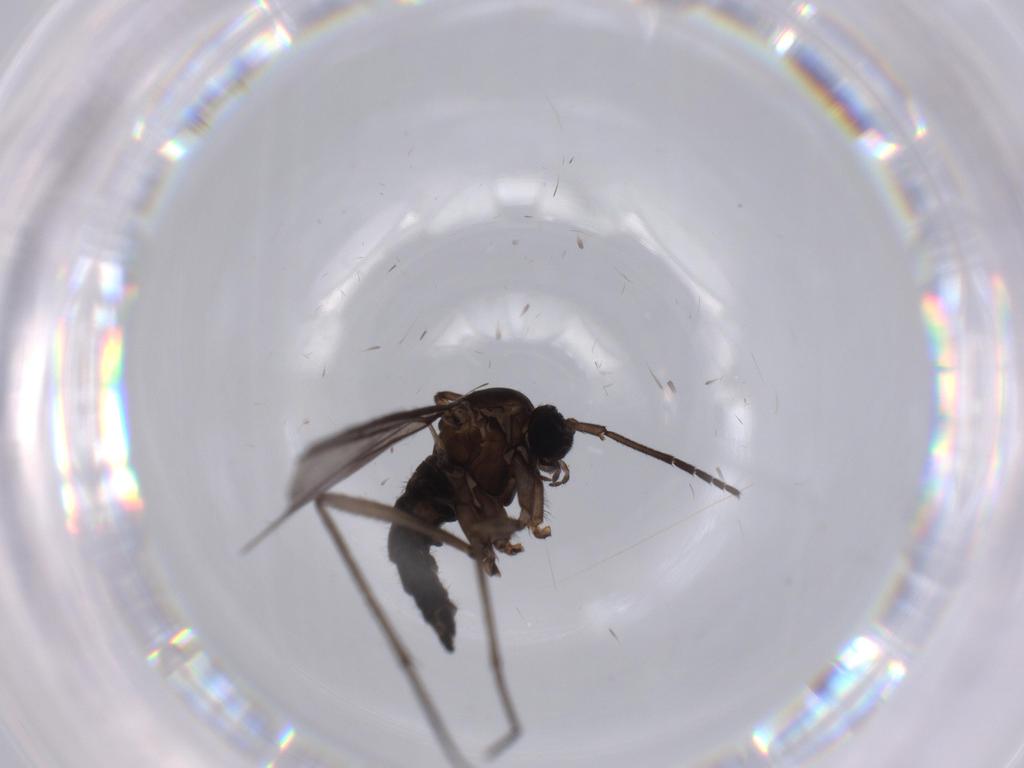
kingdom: Animalia
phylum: Arthropoda
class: Insecta
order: Diptera
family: Sciaridae
